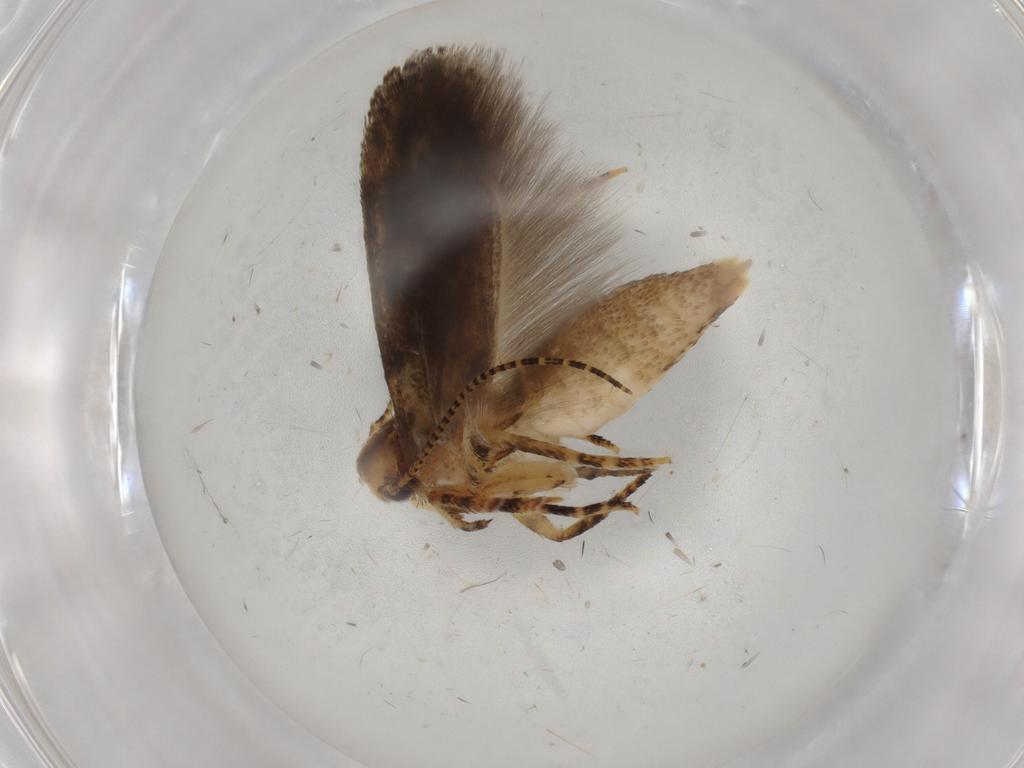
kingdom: Animalia
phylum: Arthropoda
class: Insecta
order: Lepidoptera
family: Gelechiidae
